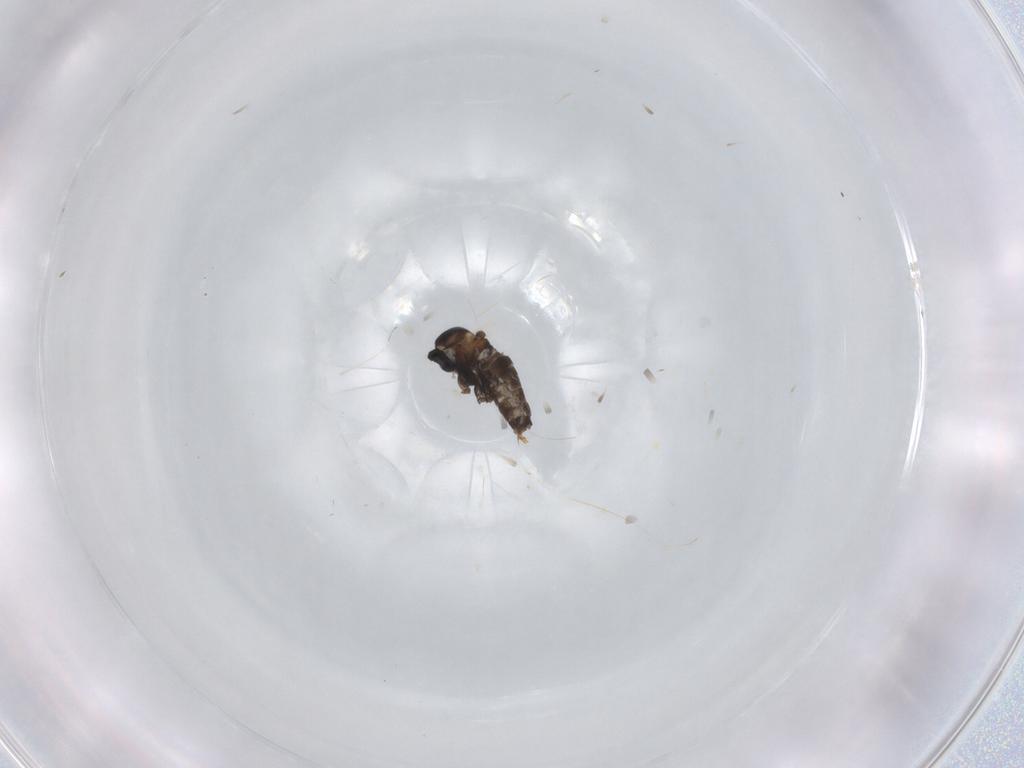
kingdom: Animalia
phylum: Arthropoda
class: Insecta
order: Diptera
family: Cecidomyiidae
